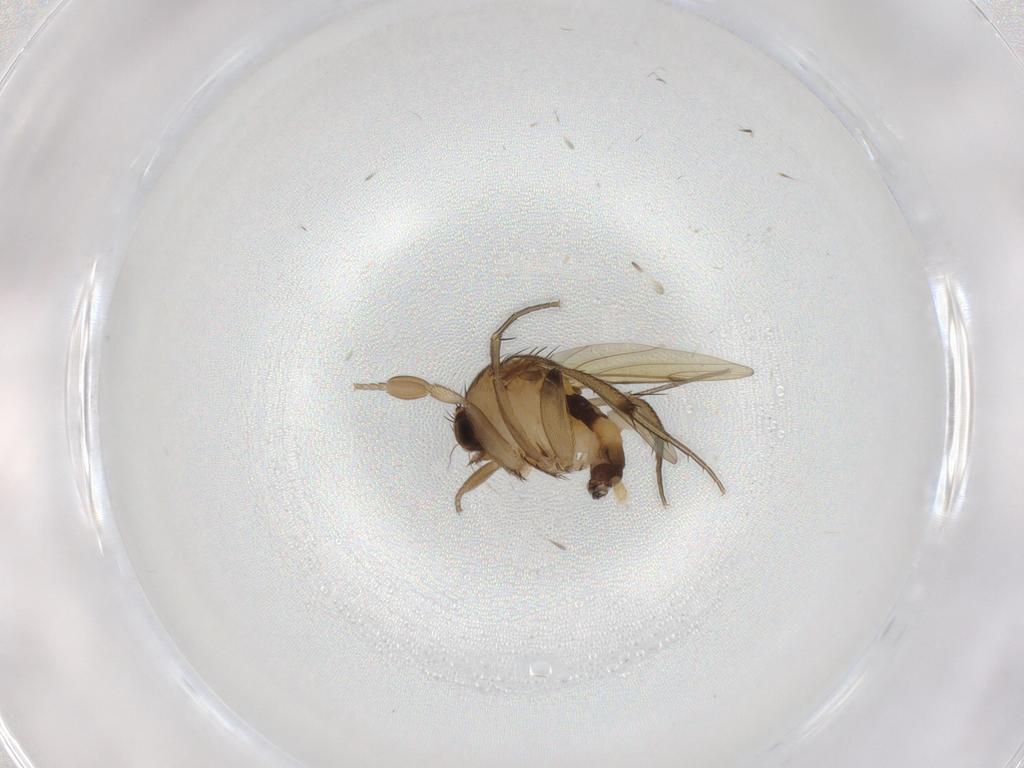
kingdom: Animalia
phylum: Arthropoda
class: Insecta
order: Diptera
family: Phoridae
